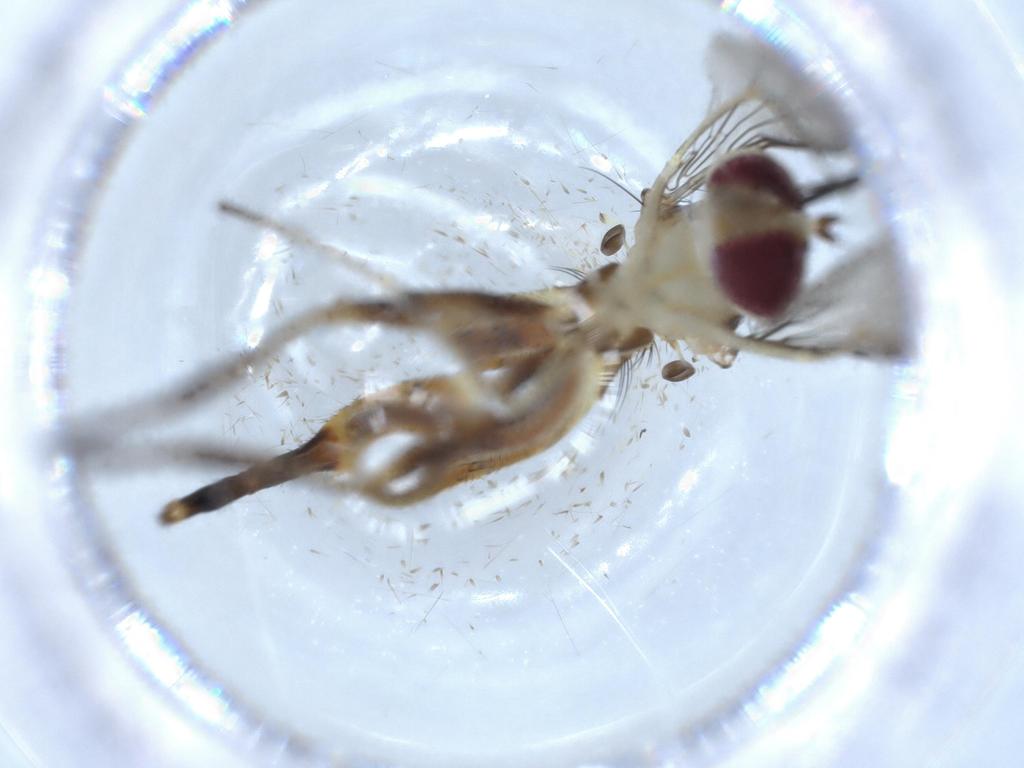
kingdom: Animalia
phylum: Arthropoda
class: Insecta
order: Diptera
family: Conopidae
